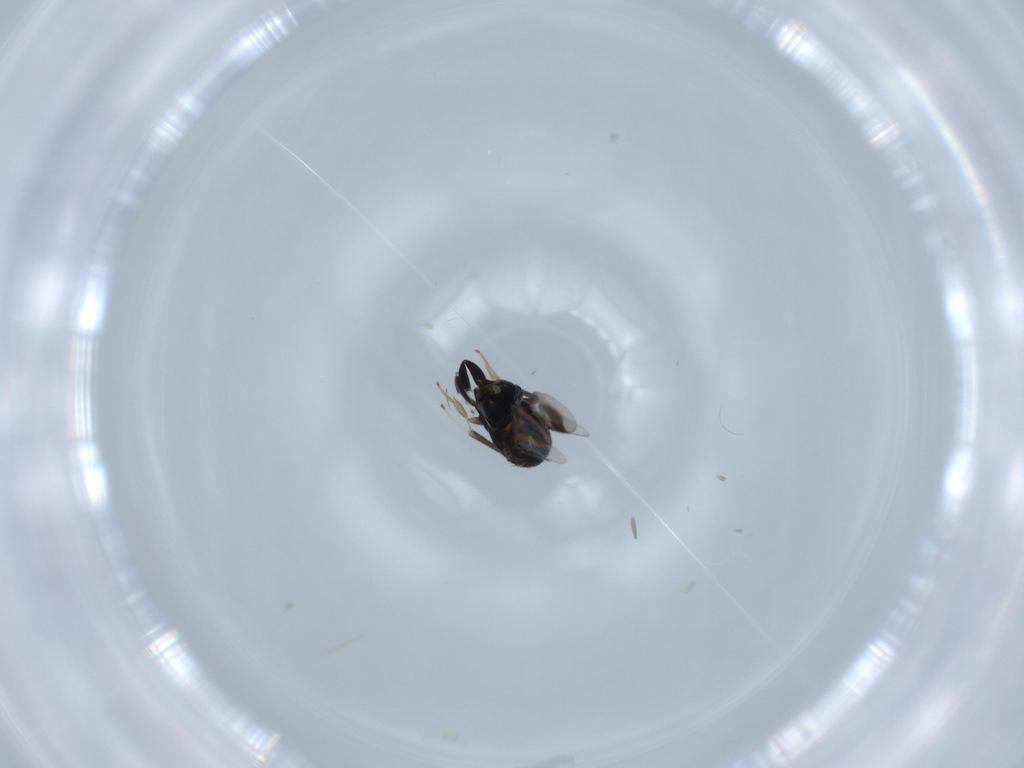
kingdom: Animalia
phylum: Arthropoda
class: Insecta
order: Hymenoptera
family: Aphelinidae
